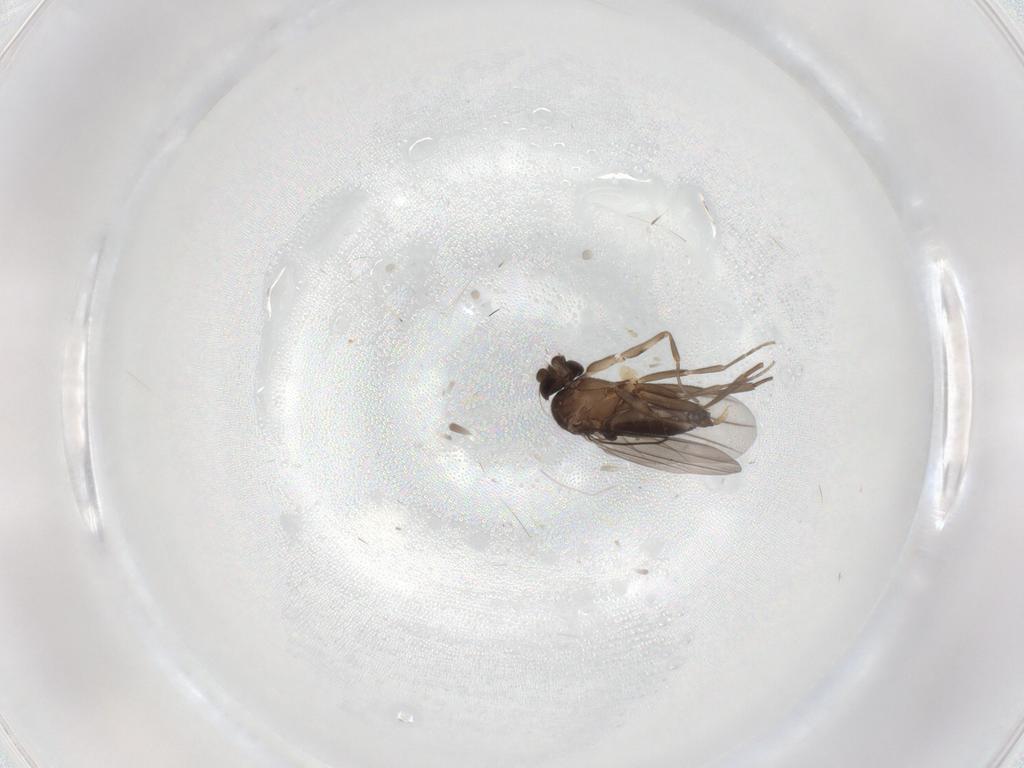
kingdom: Animalia
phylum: Arthropoda
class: Insecta
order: Diptera
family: Phoridae
